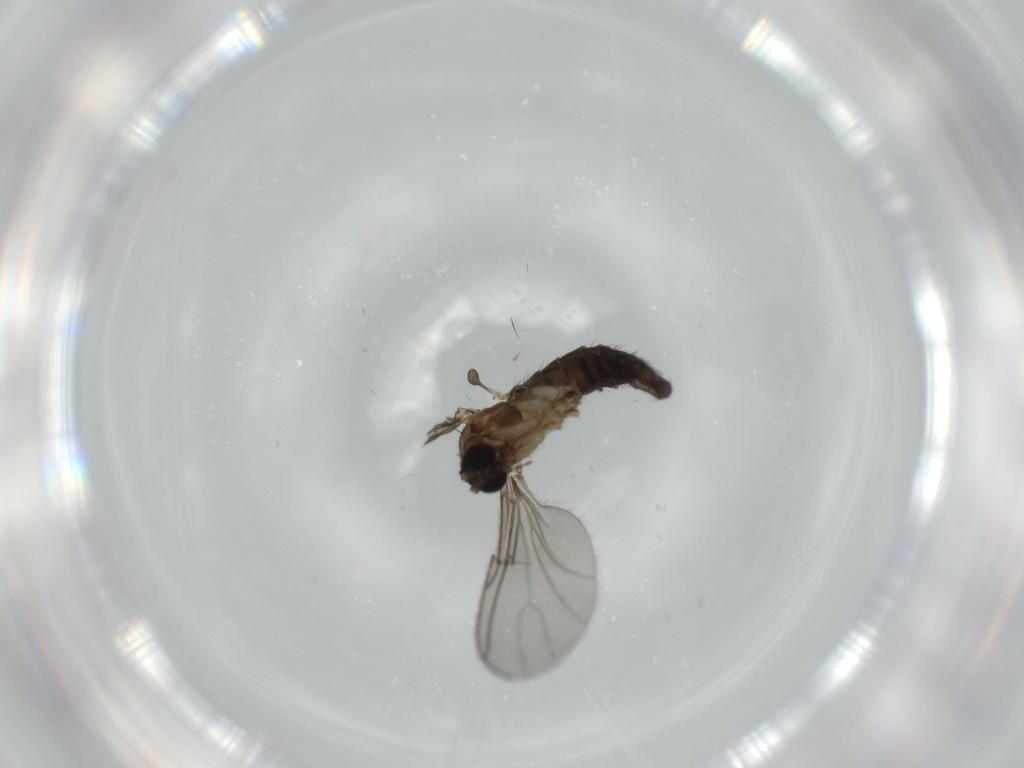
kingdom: Animalia
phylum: Arthropoda
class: Insecta
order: Diptera
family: Sciaridae
